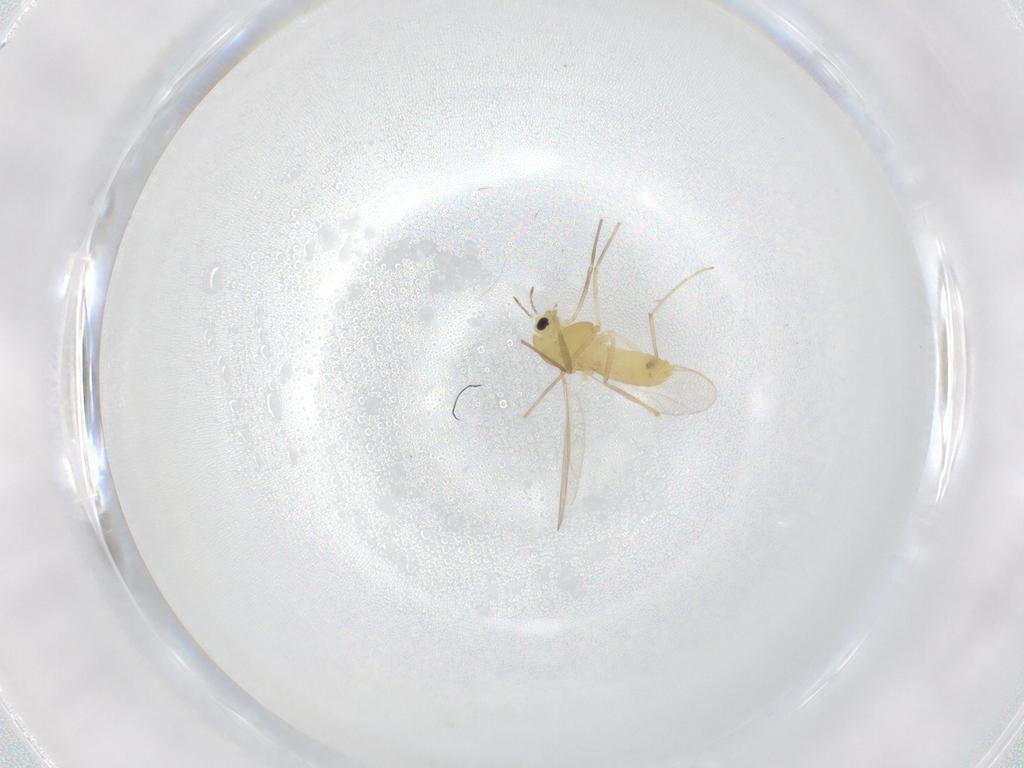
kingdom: Animalia
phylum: Arthropoda
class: Insecta
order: Diptera
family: Chironomidae
